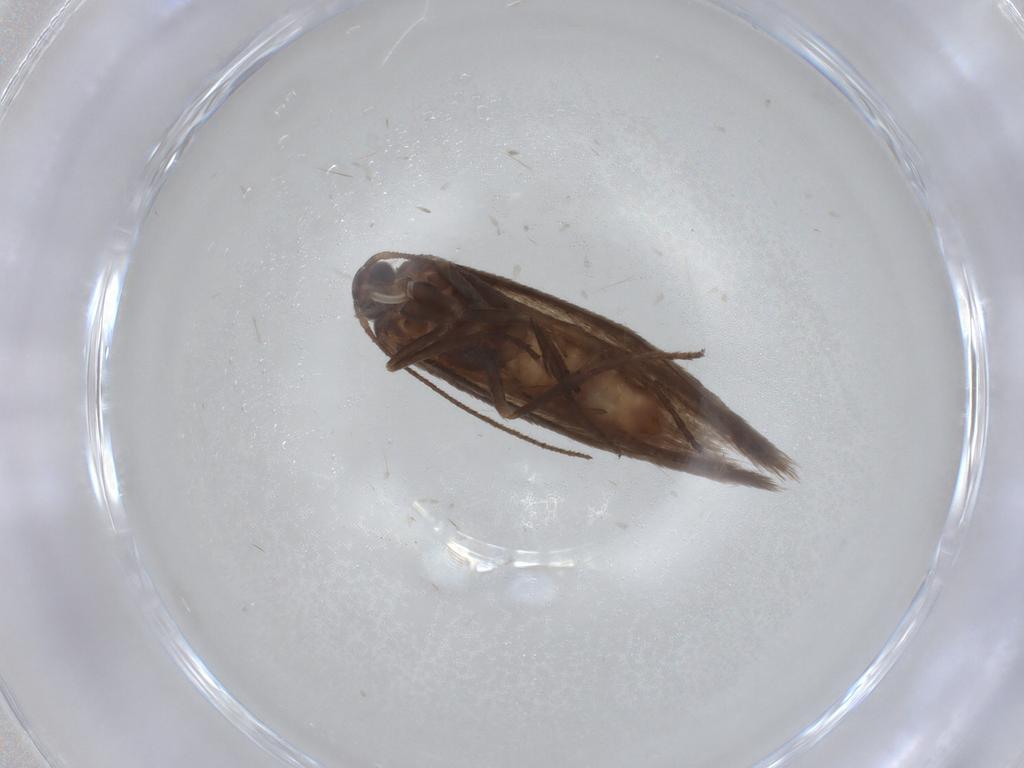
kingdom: Animalia
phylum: Arthropoda
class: Insecta
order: Lepidoptera
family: Limacodidae
